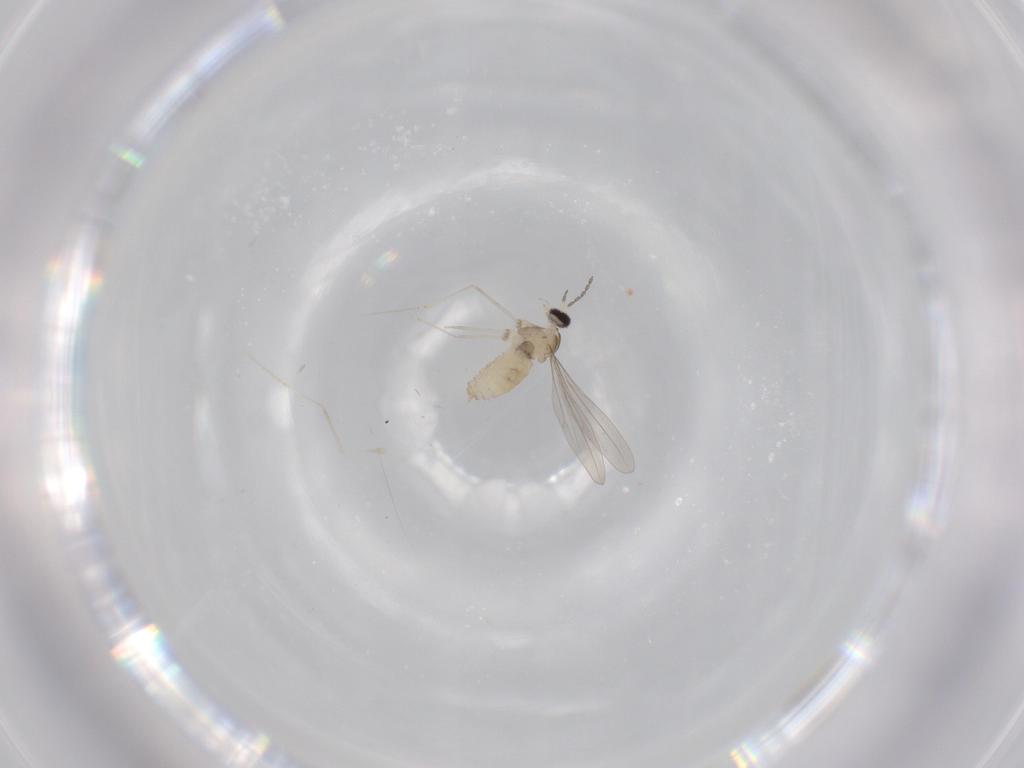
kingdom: Animalia
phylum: Arthropoda
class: Insecta
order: Diptera
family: Cecidomyiidae
